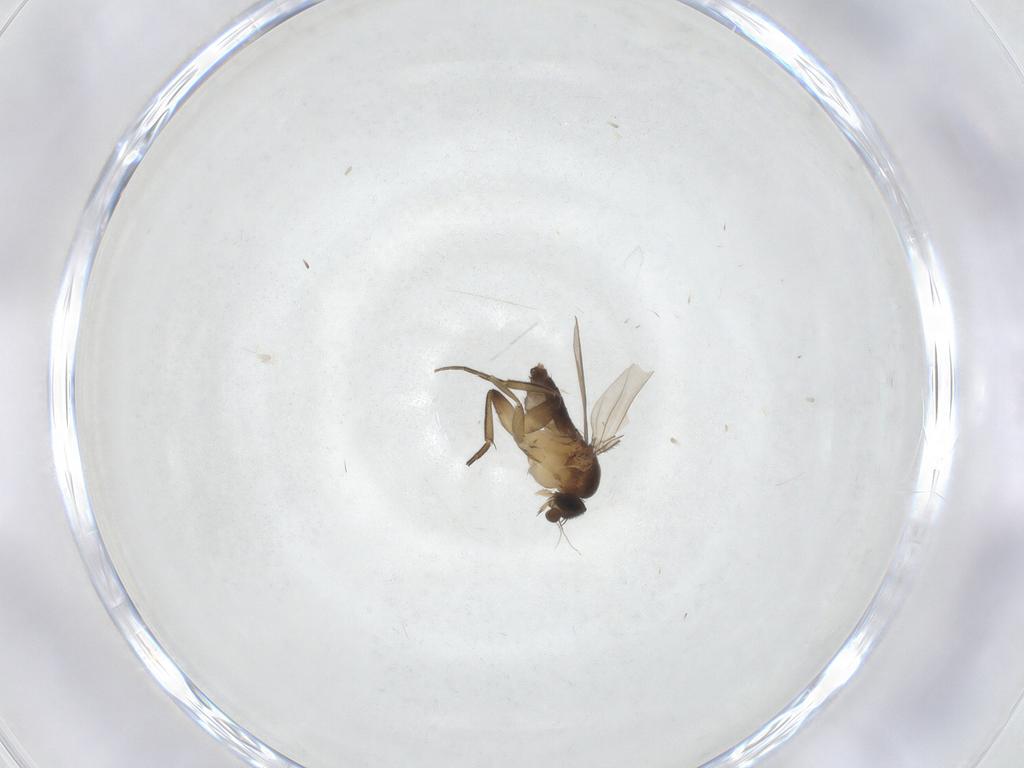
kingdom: Animalia
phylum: Arthropoda
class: Insecta
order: Diptera
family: Phoridae
